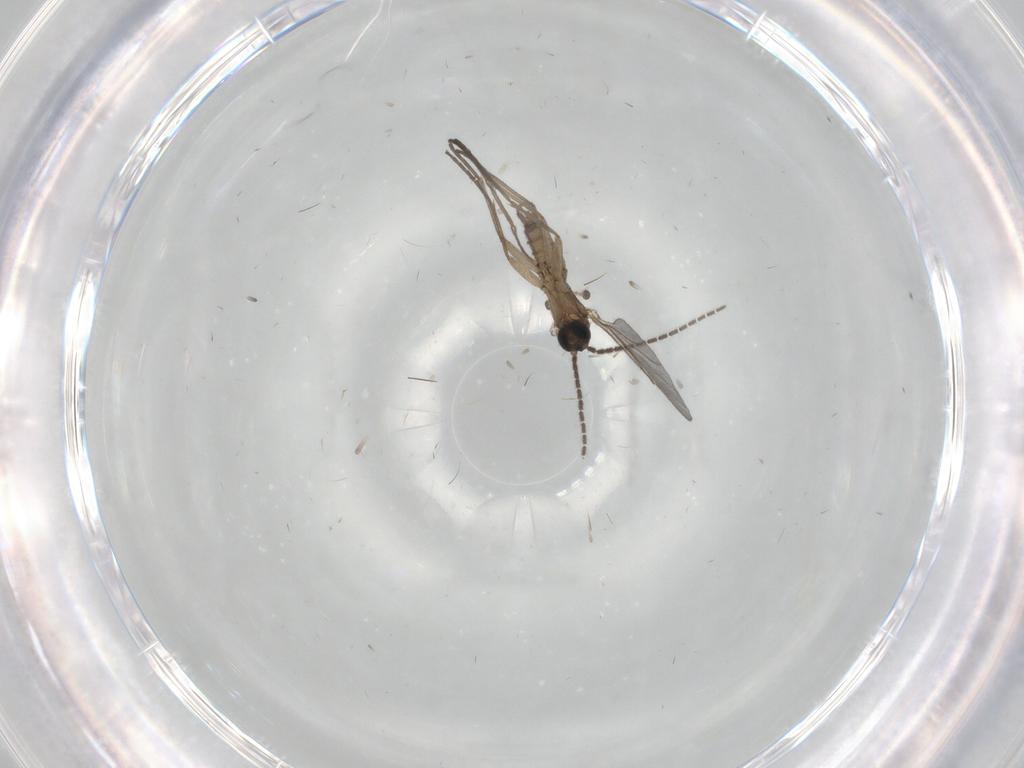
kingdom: Animalia
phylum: Arthropoda
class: Insecta
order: Diptera
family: Sciaridae
